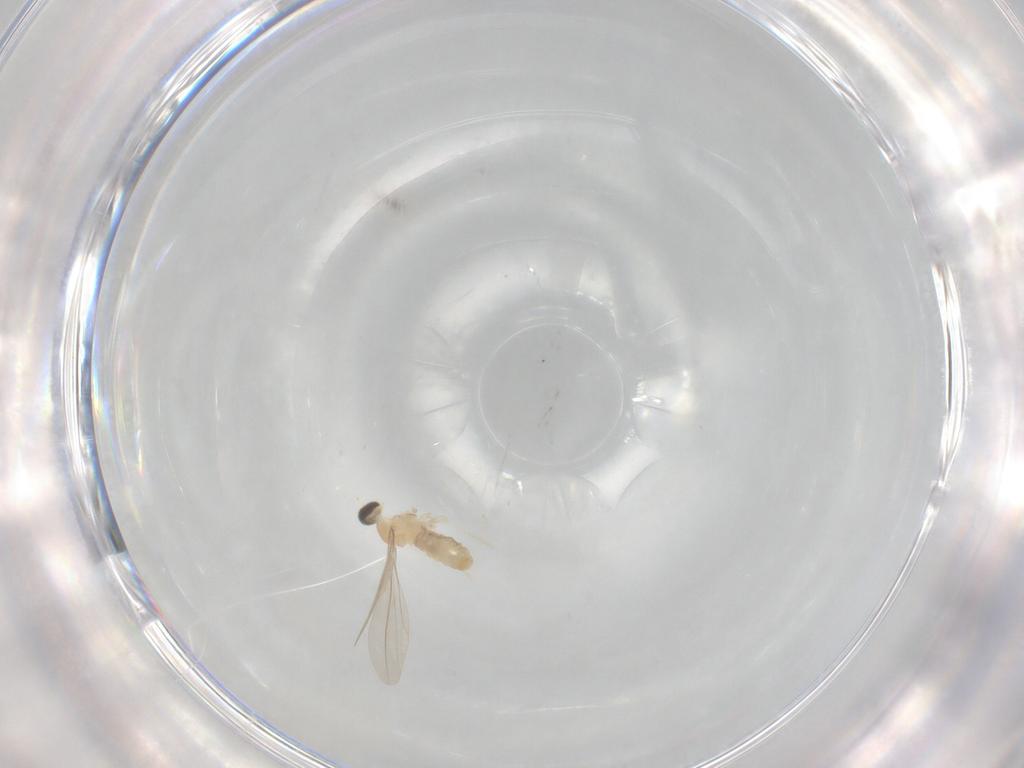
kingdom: Animalia
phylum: Arthropoda
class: Insecta
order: Diptera
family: Cecidomyiidae
